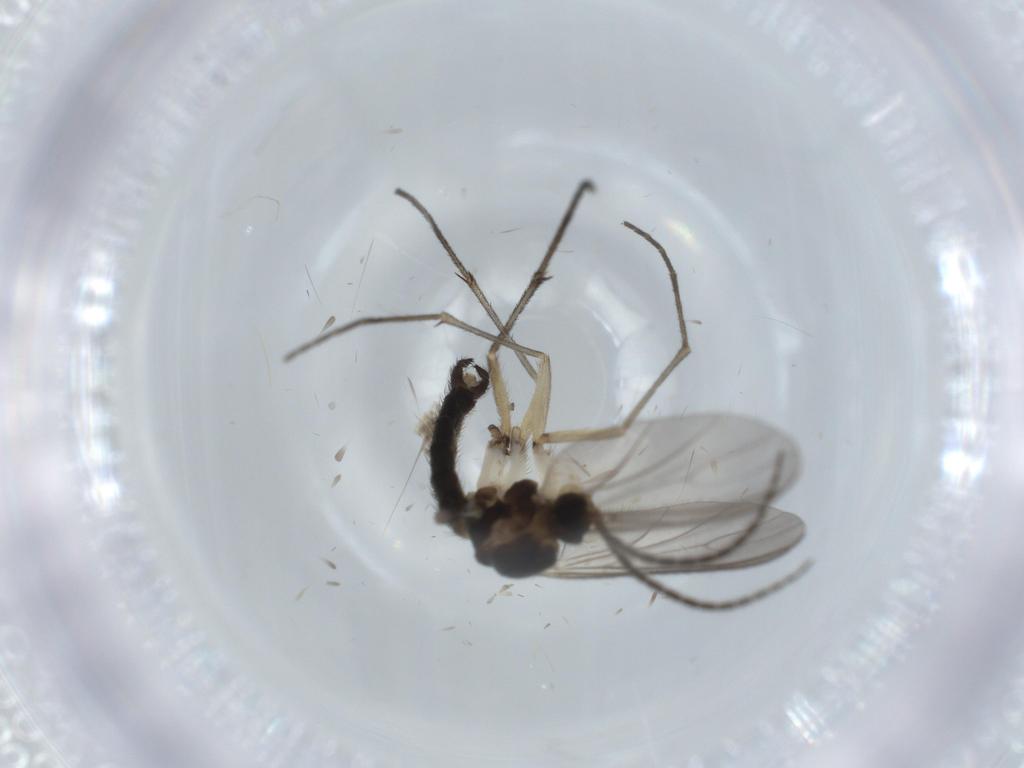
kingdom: Animalia
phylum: Arthropoda
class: Insecta
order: Diptera
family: Sciaridae
